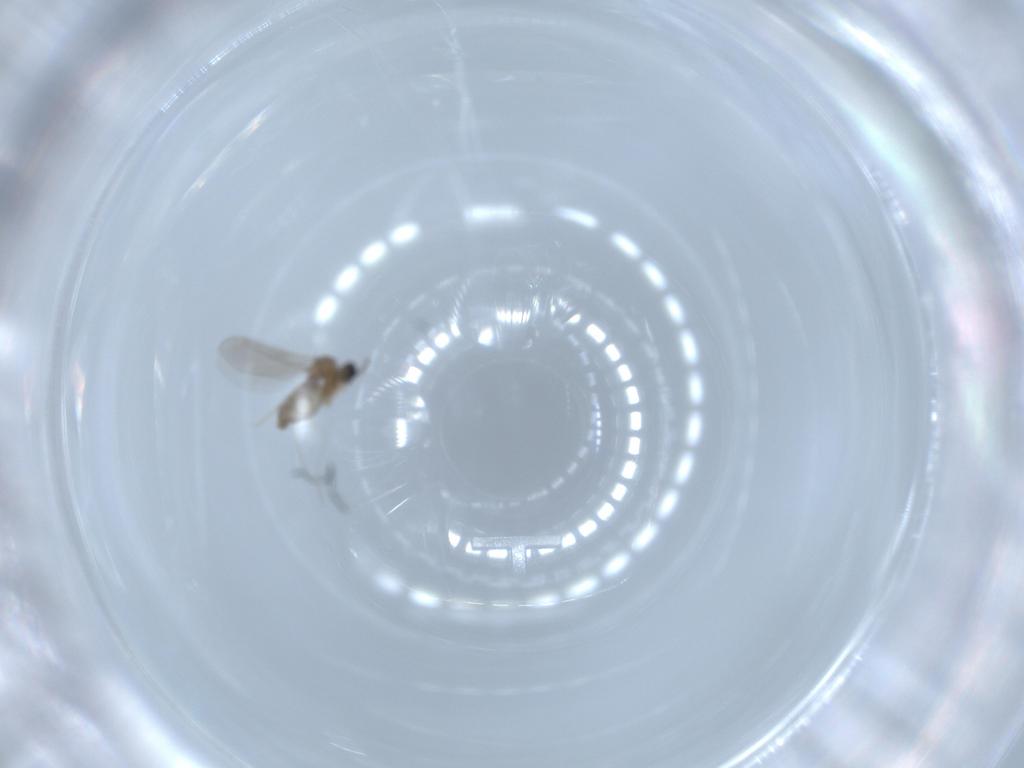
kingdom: Animalia
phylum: Arthropoda
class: Insecta
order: Diptera
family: Cecidomyiidae
